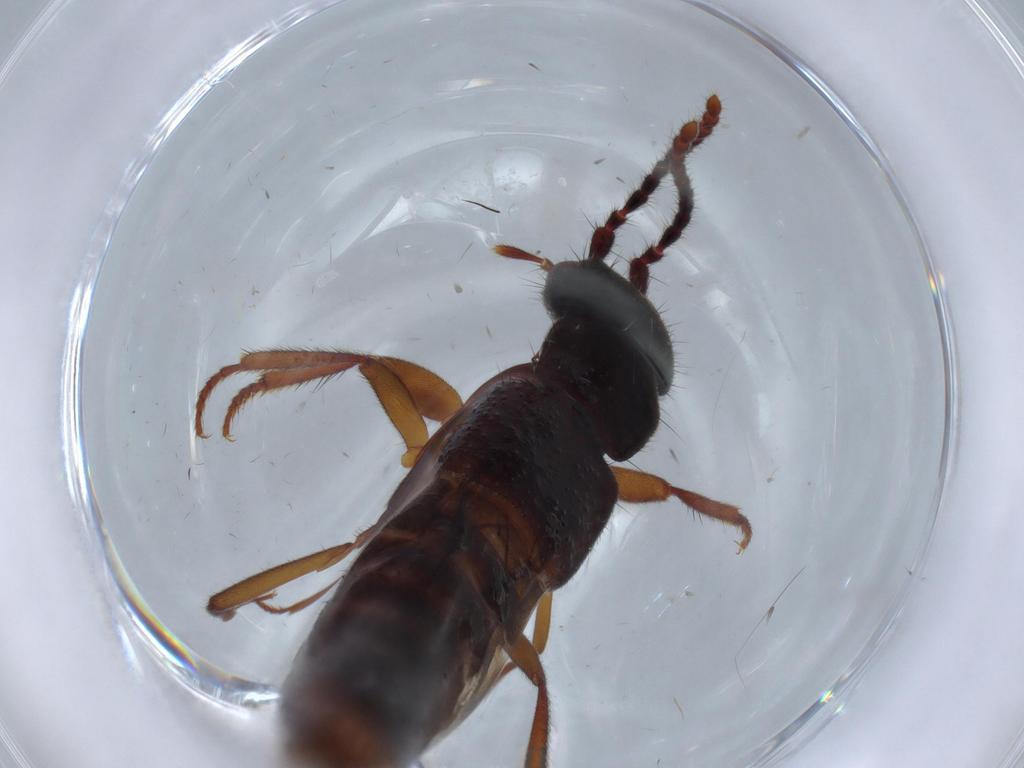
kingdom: Animalia
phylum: Arthropoda
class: Insecta
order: Coleoptera
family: Staphylinidae
